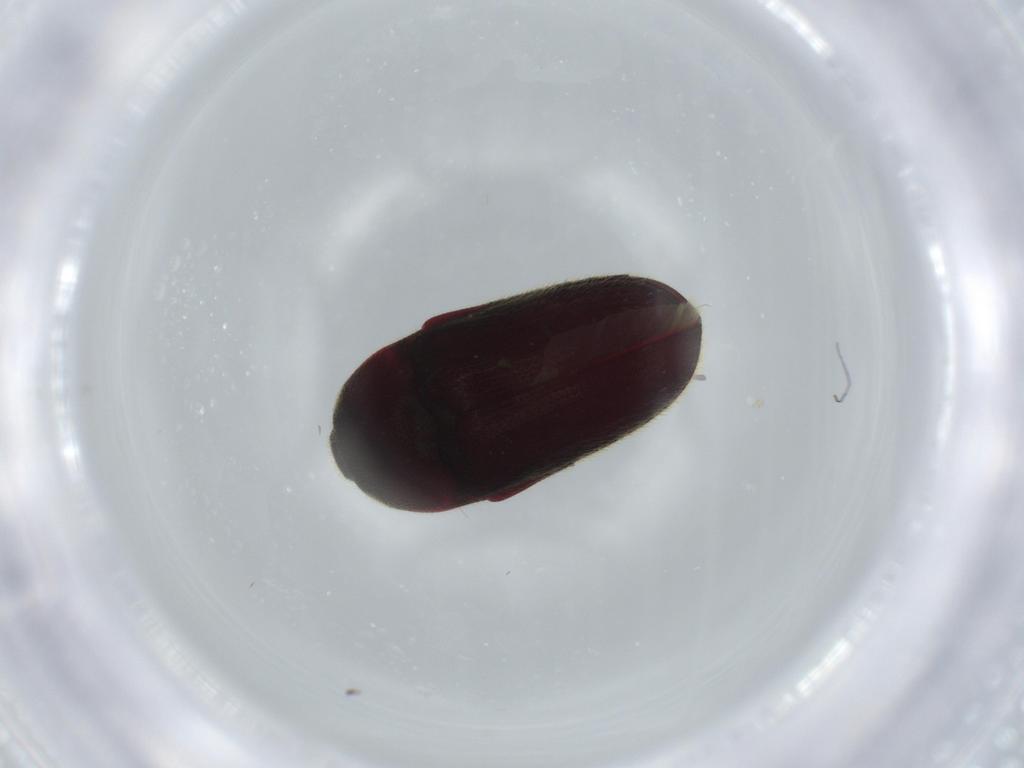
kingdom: Animalia
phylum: Arthropoda
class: Insecta
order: Coleoptera
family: Throscidae
